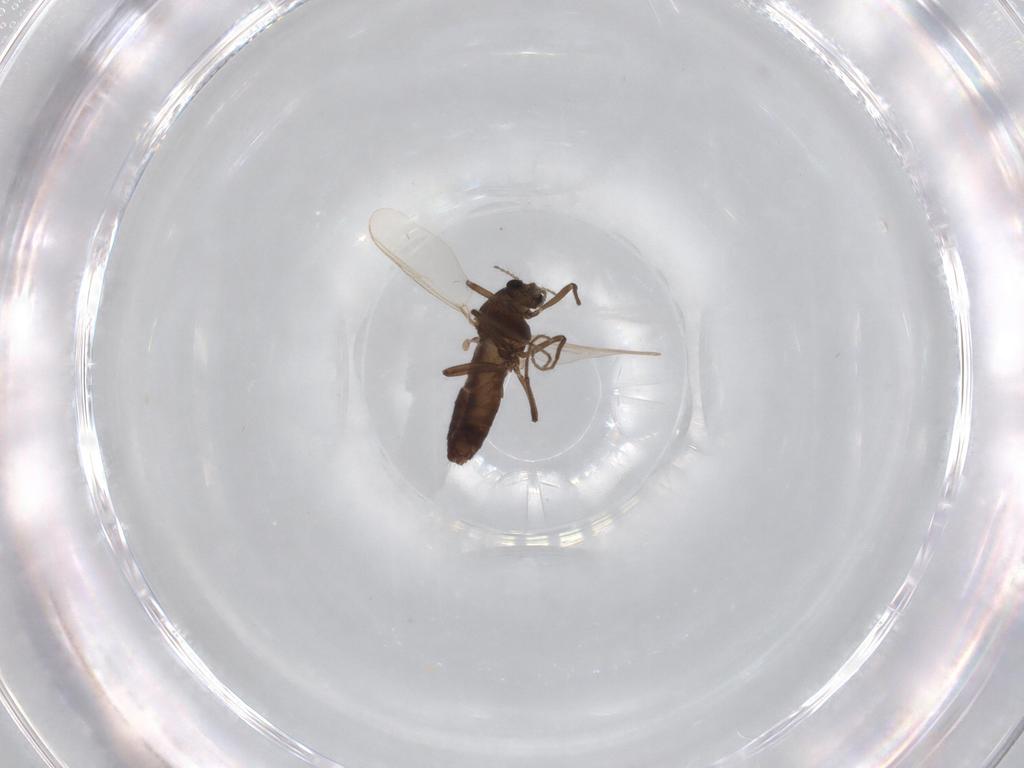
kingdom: Animalia
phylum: Arthropoda
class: Insecta
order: Diptera
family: Chironomidae
